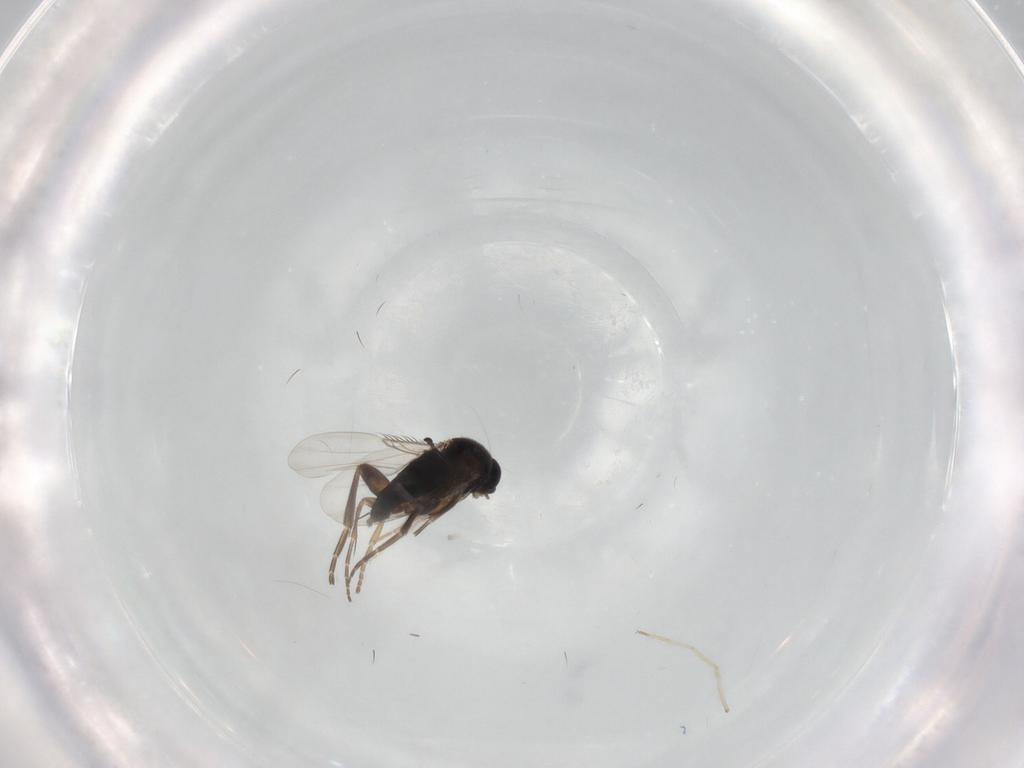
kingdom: Animalia
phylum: Arthropoda
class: Insecta
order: Diptera
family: Phoridae
